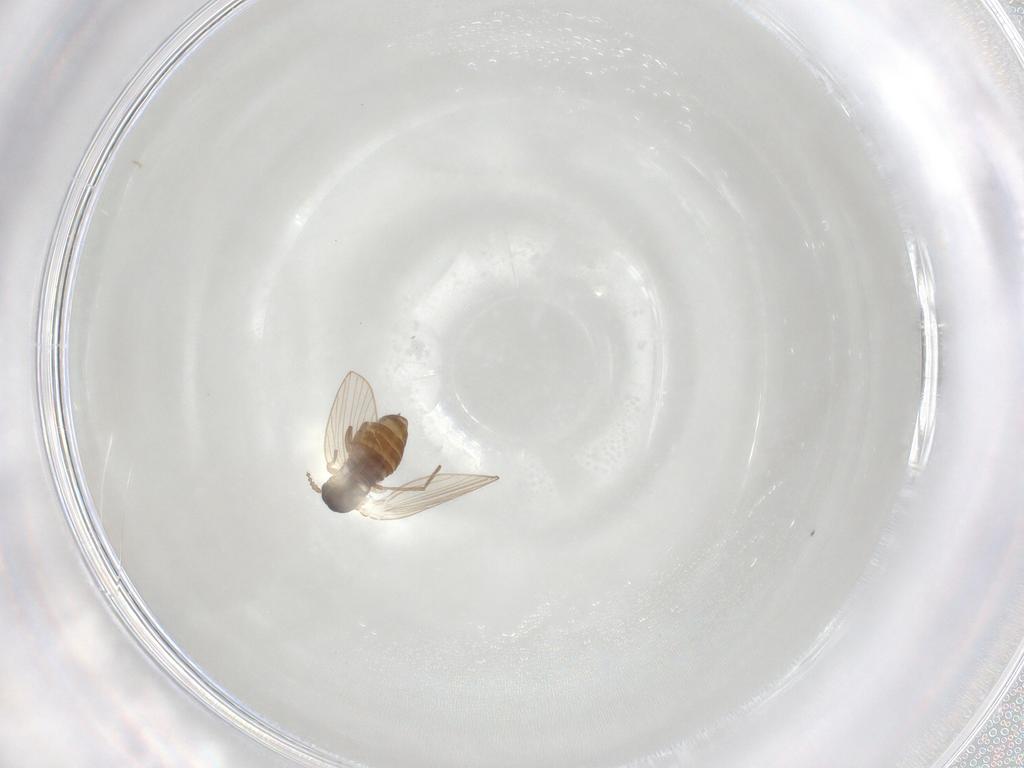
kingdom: Animalia
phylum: Arthropoda
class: Insecta
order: Diptera
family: Psychodidae
